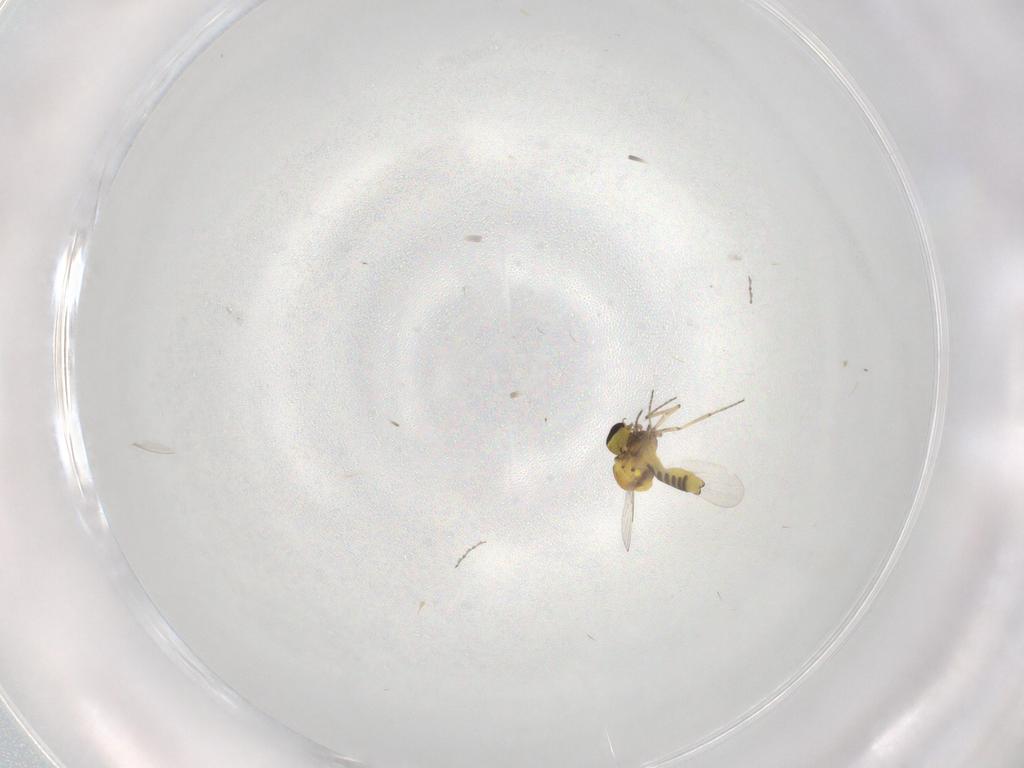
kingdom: Animalia
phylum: Arthropoda
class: Insecta
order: Diptera
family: Ceratopogonidae
